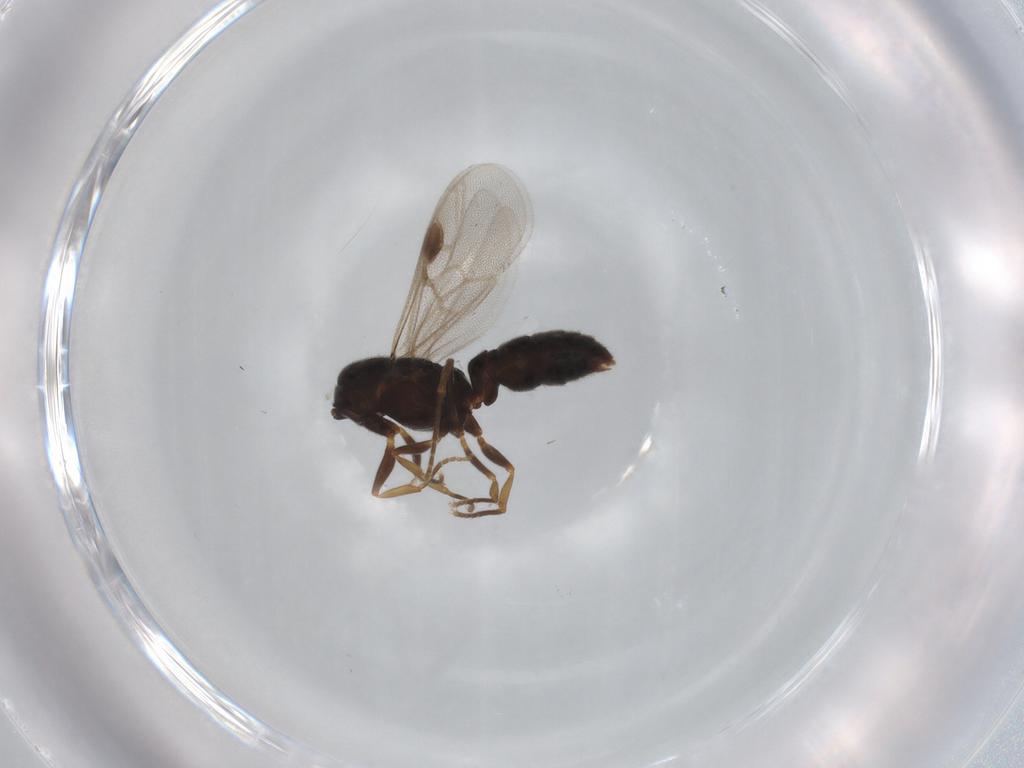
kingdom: Animalia
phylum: Arthropoda
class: Insecta
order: Hymenoptera
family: Formicidae
